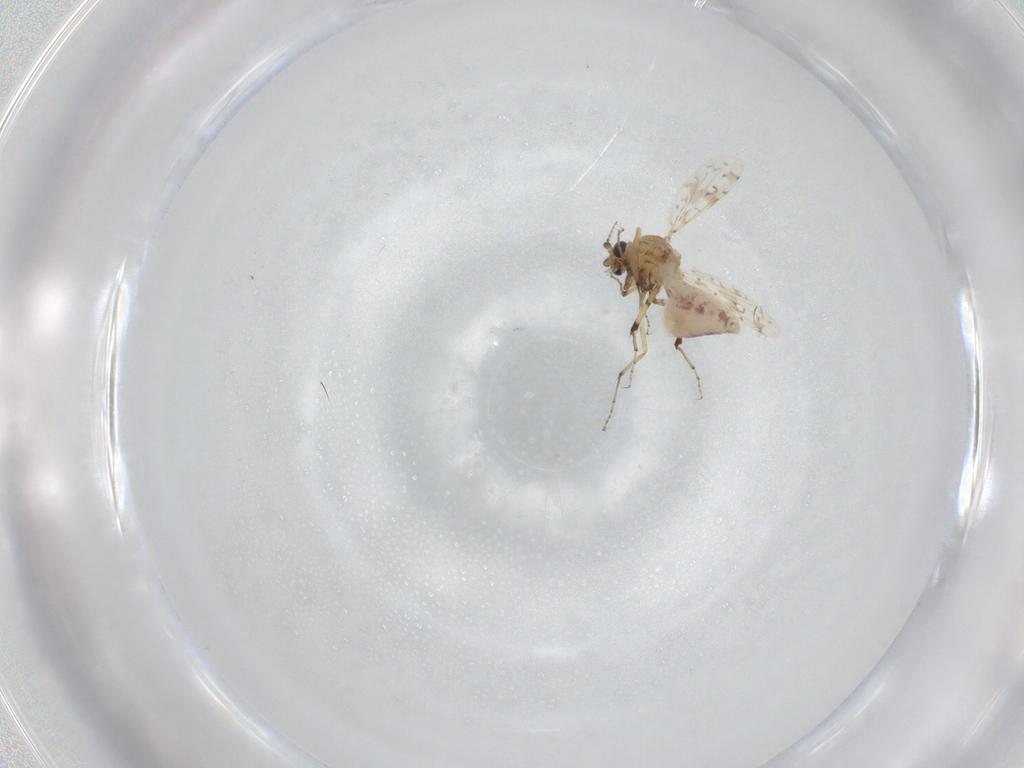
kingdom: Animalia
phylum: Arthropoda
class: Insecta
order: Diptera
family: Ceratopogonidae
